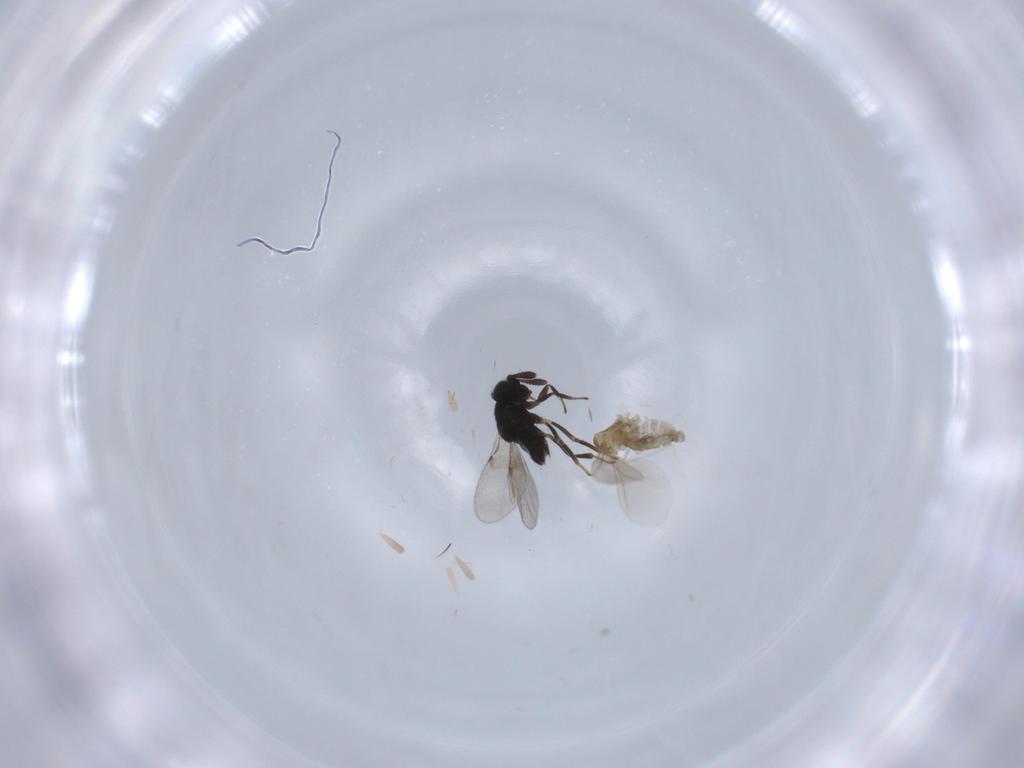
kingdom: Animalia
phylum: Arthropoda
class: Insecta
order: Diptera
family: Cecidomyiidae
